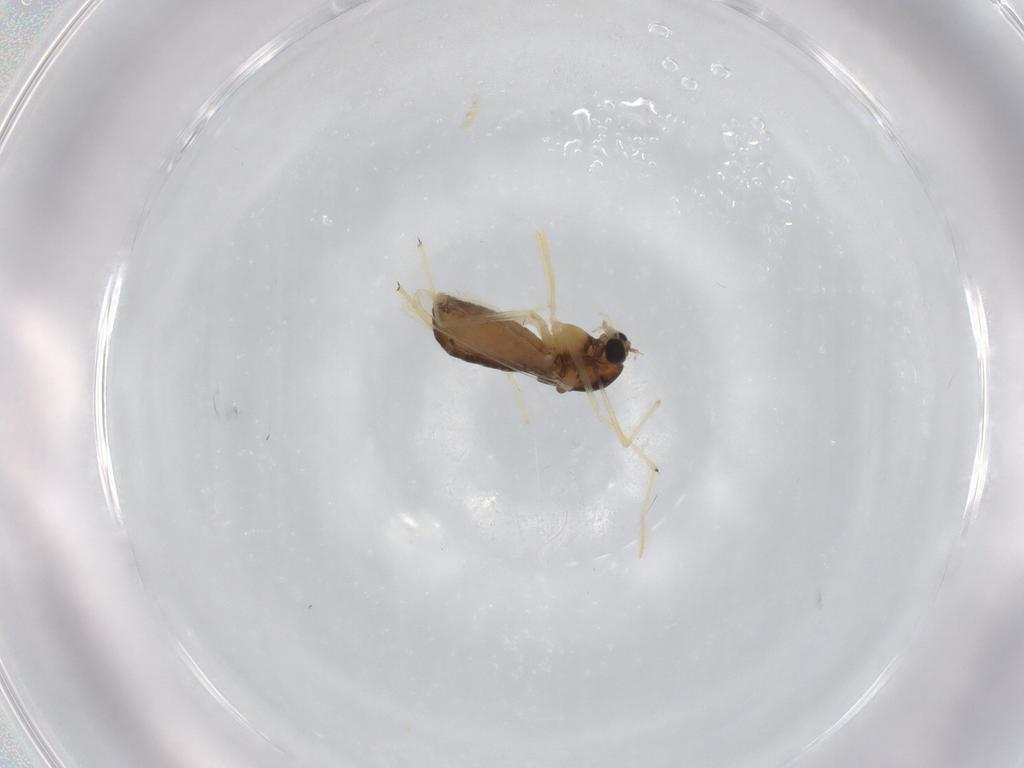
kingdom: Animalia
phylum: Arthropoda
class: Insecta
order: Diptera
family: Chironomidae
